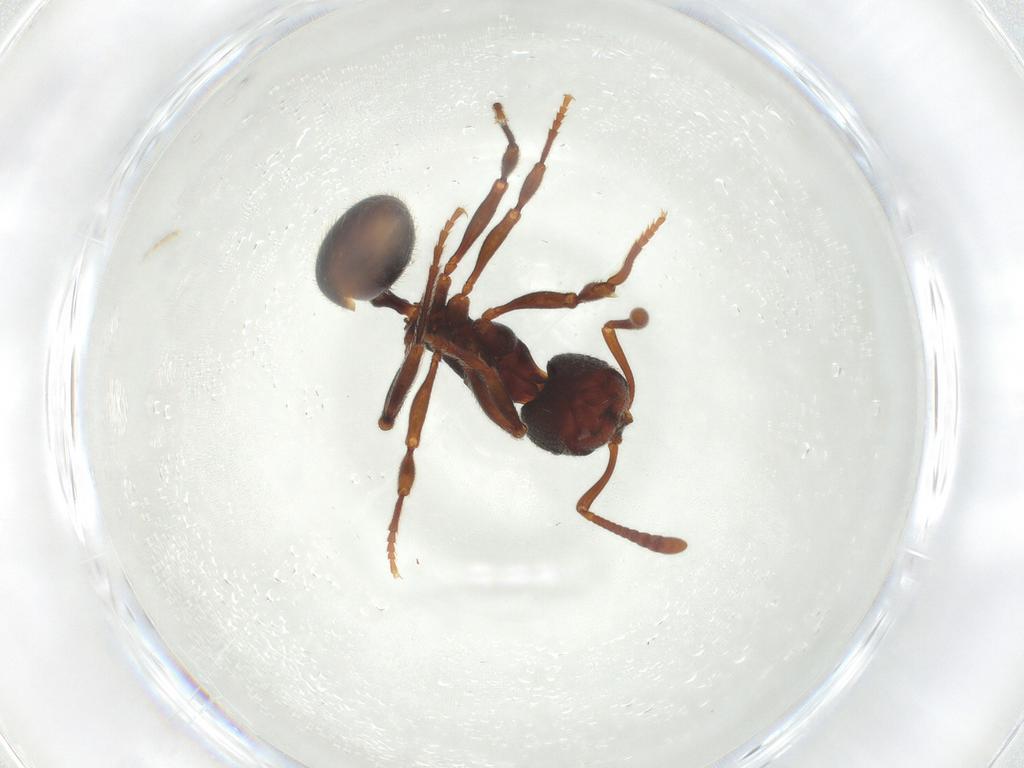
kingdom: Animalia
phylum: Arthropoda
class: Insecta
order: Hymenoptera
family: Formicidae
